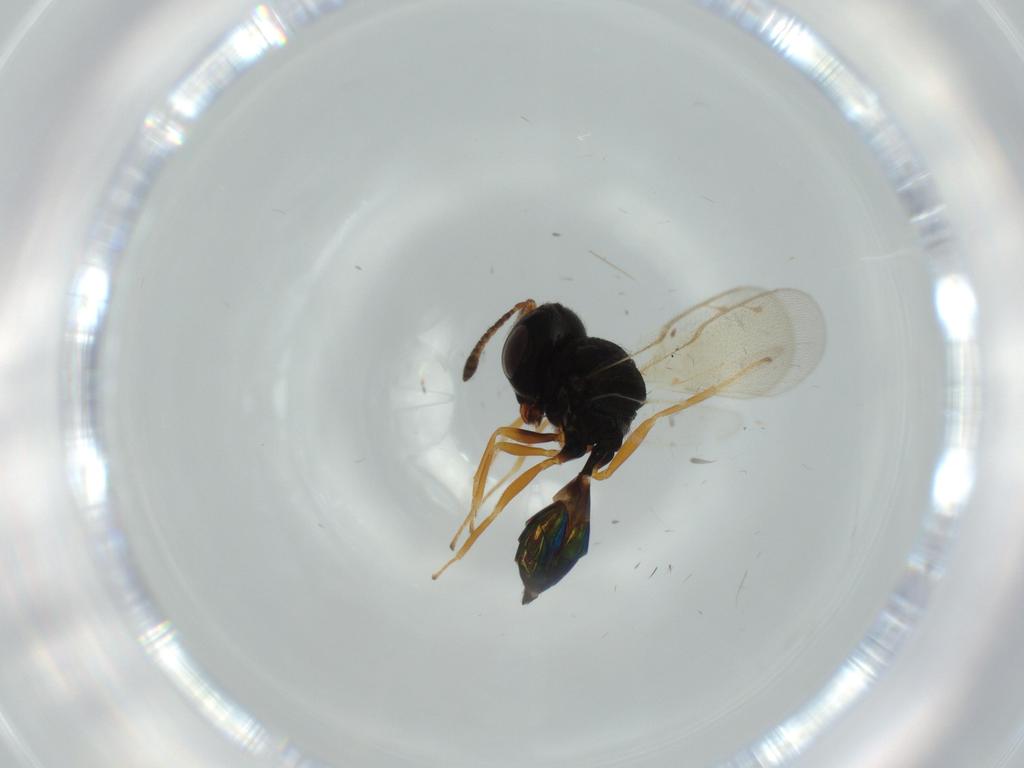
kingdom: Animalia
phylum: Arthropoda
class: Insecta
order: Hymenoptera
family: Pteromalidae
